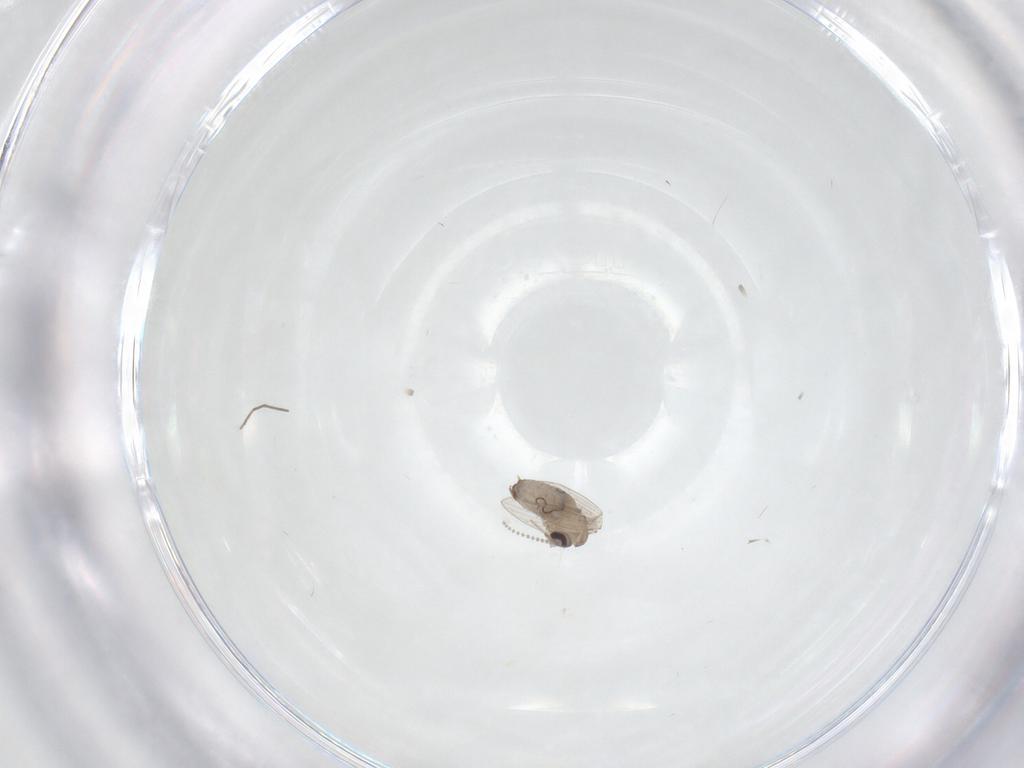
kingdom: Animalia
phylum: Arthropoda
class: Insecta
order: Diptera
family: Psychodidae
